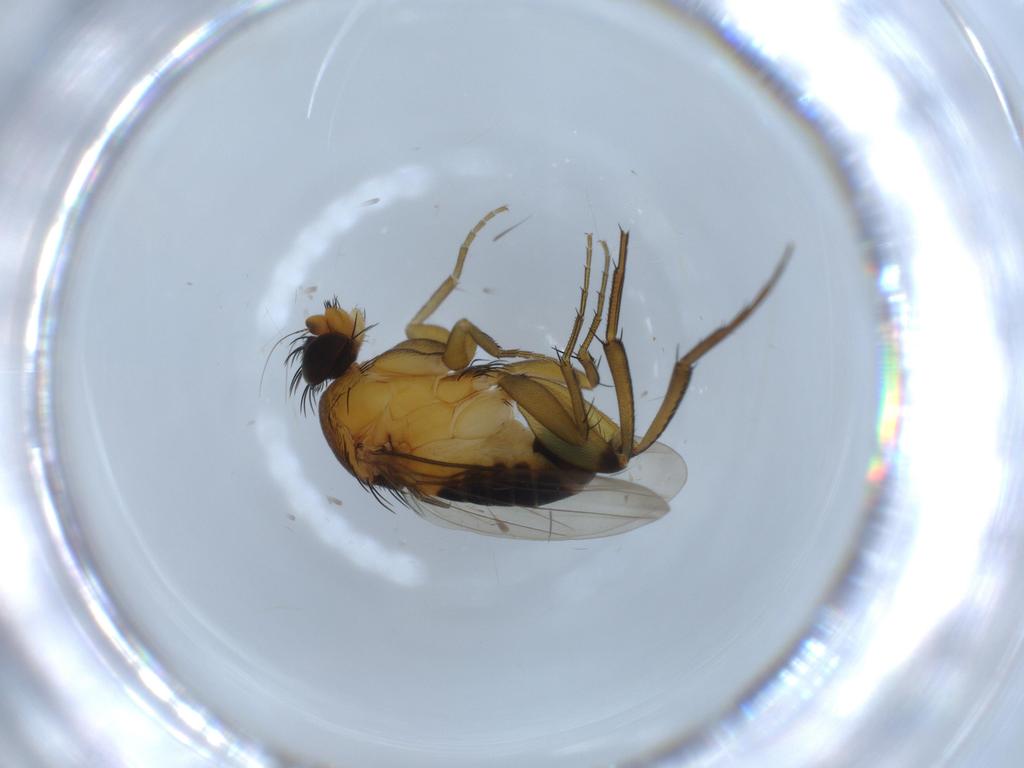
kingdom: Animalia
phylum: Arthropoda
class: Insecta
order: Diptera
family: Phoridae
